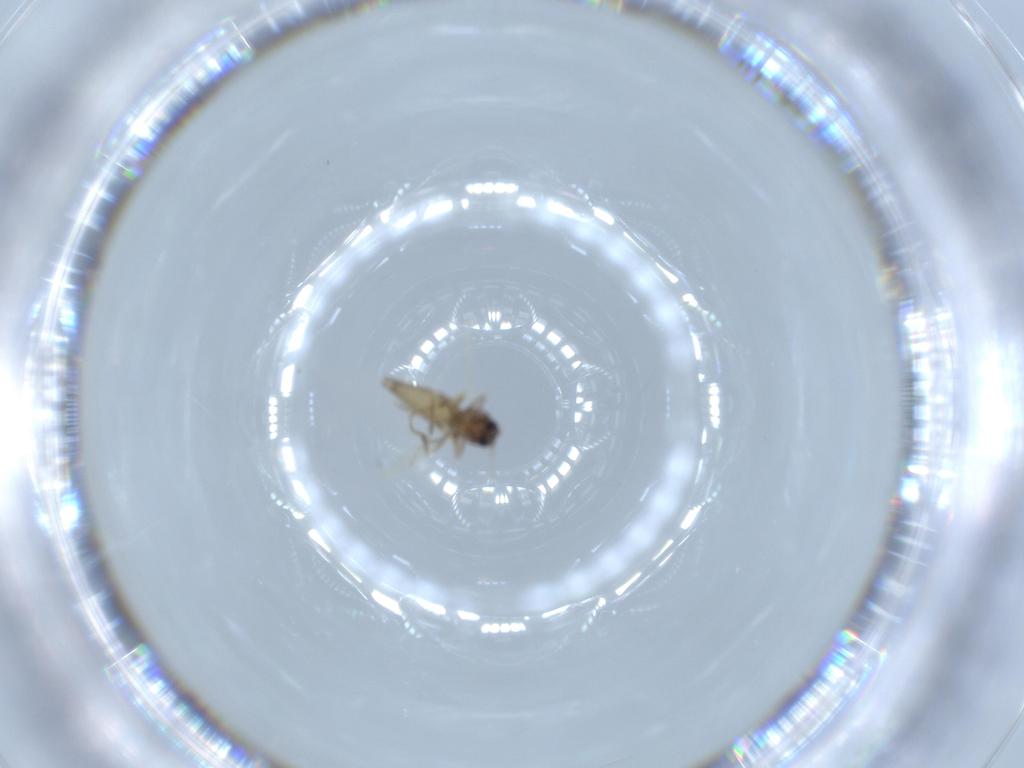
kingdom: Animalia
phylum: Arthropoda
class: Insecta
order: Diptera
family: Ceratopogonidae
